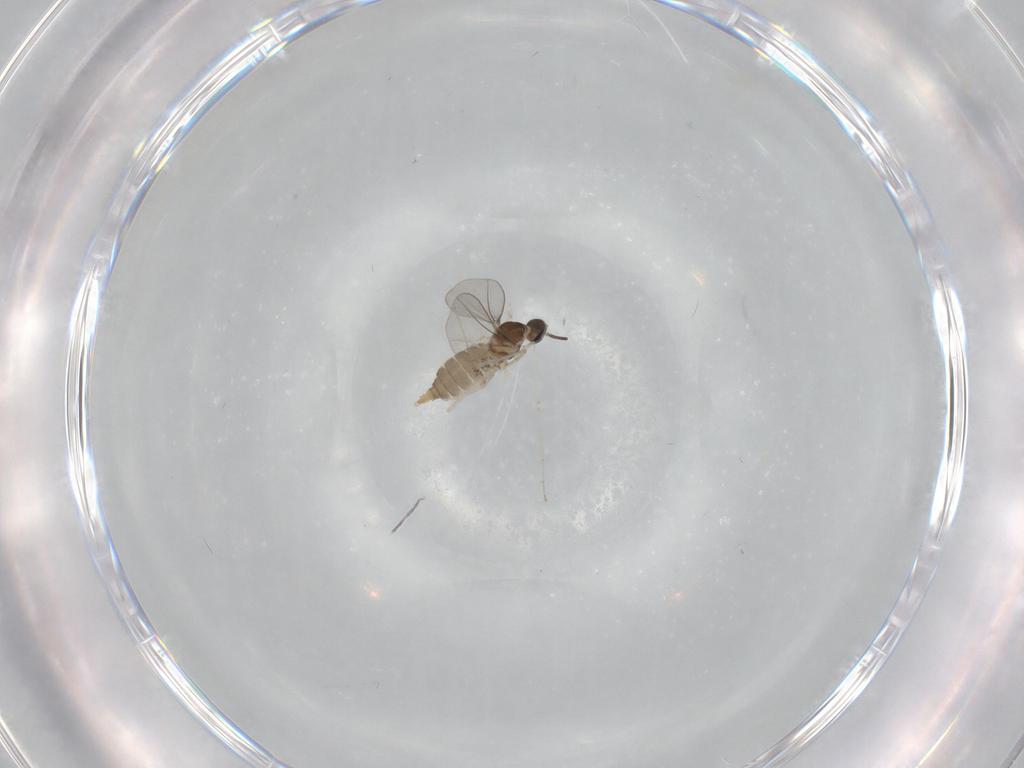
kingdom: Animalia
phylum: Arthropoda
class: Insecta
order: Diptera
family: Cecidomyiidae
